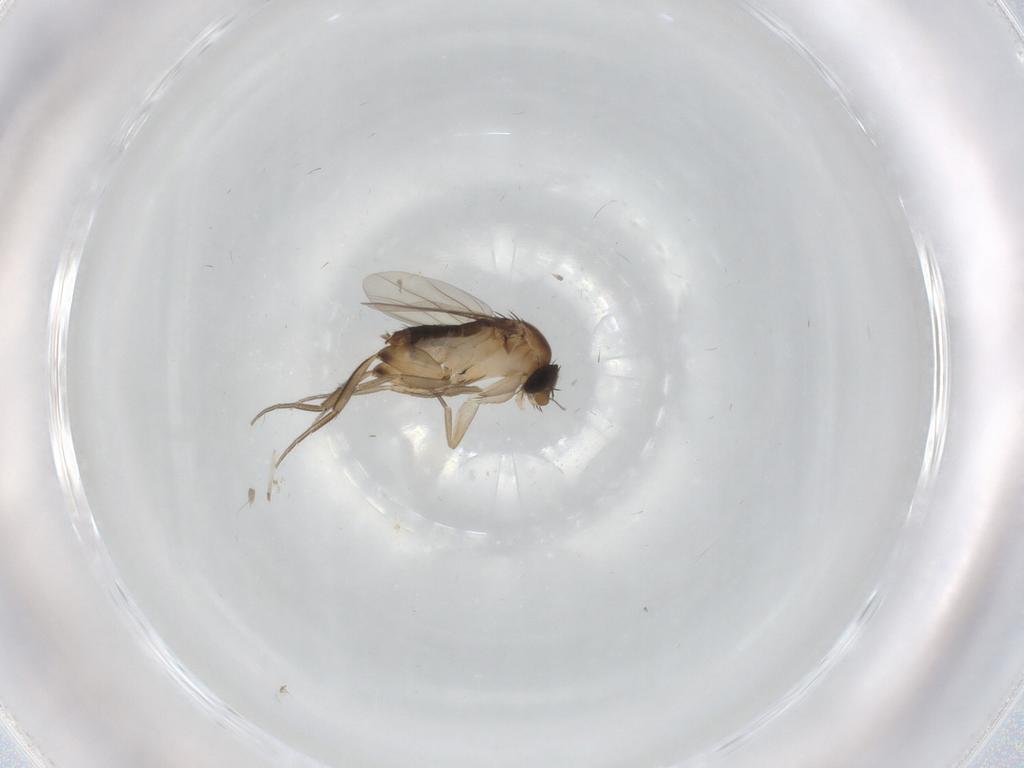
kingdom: Animalia
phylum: Arthropoda
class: Insecta
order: Diptera
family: Phoridae
